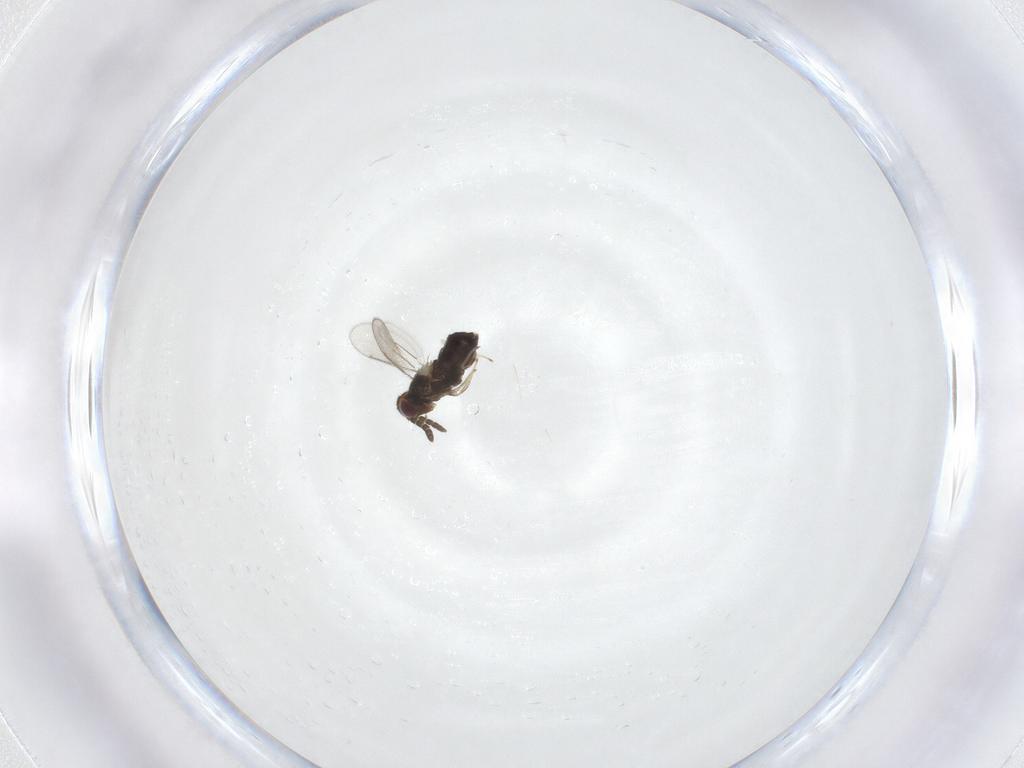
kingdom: Animalia
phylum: Arthropoda
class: Insecta
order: Hymenoptera
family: Aphelinidae
